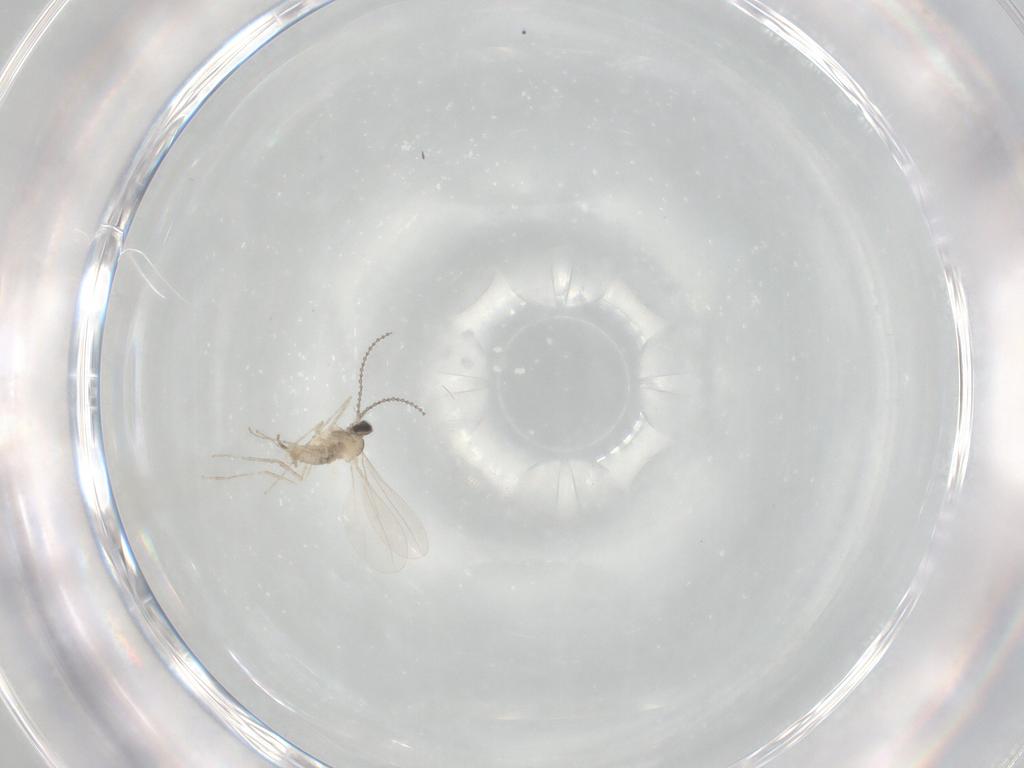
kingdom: Animalia
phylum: Arthropoda
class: Insecta
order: Diptera
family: Cecidomyiidae
